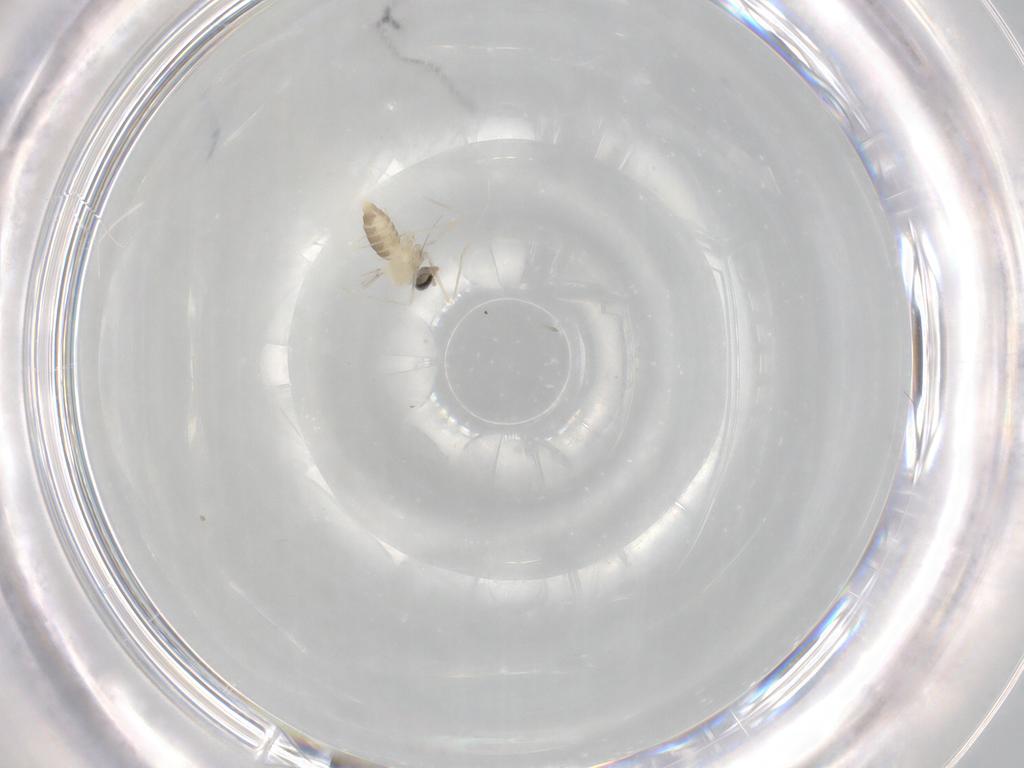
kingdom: Animalia
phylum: Arthropoda
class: Insecta
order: Diptera
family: Cecidomyiidae
